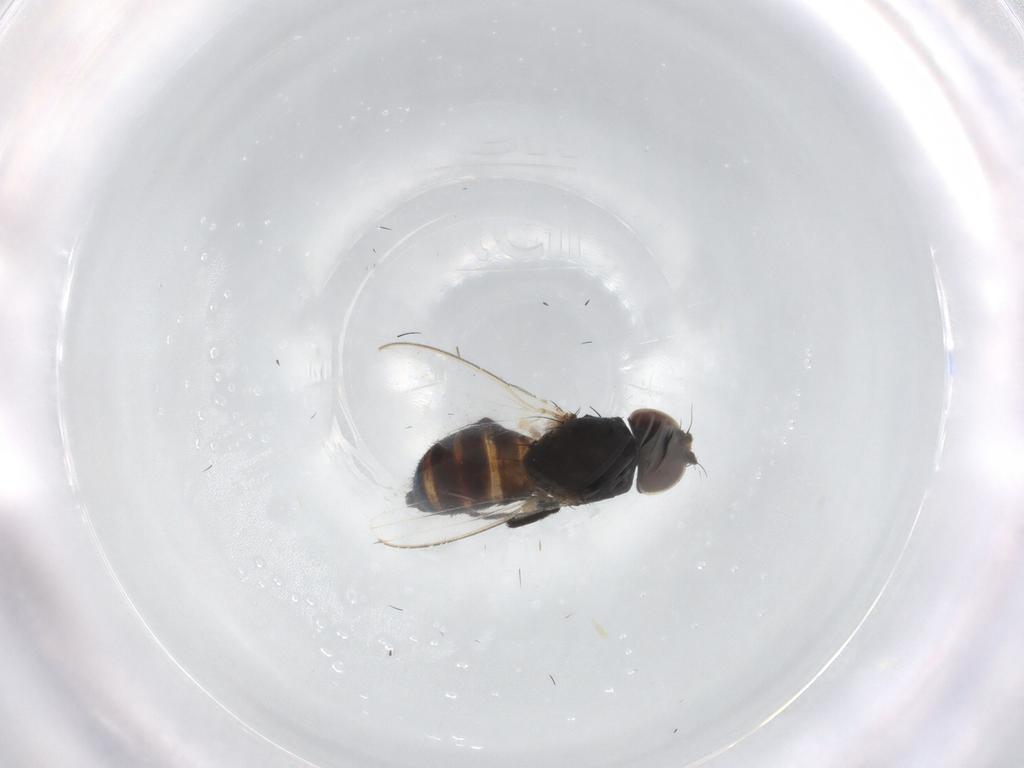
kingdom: Animalia
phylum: Arthropoda
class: Insecta
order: Diptera
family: Milichiidae
